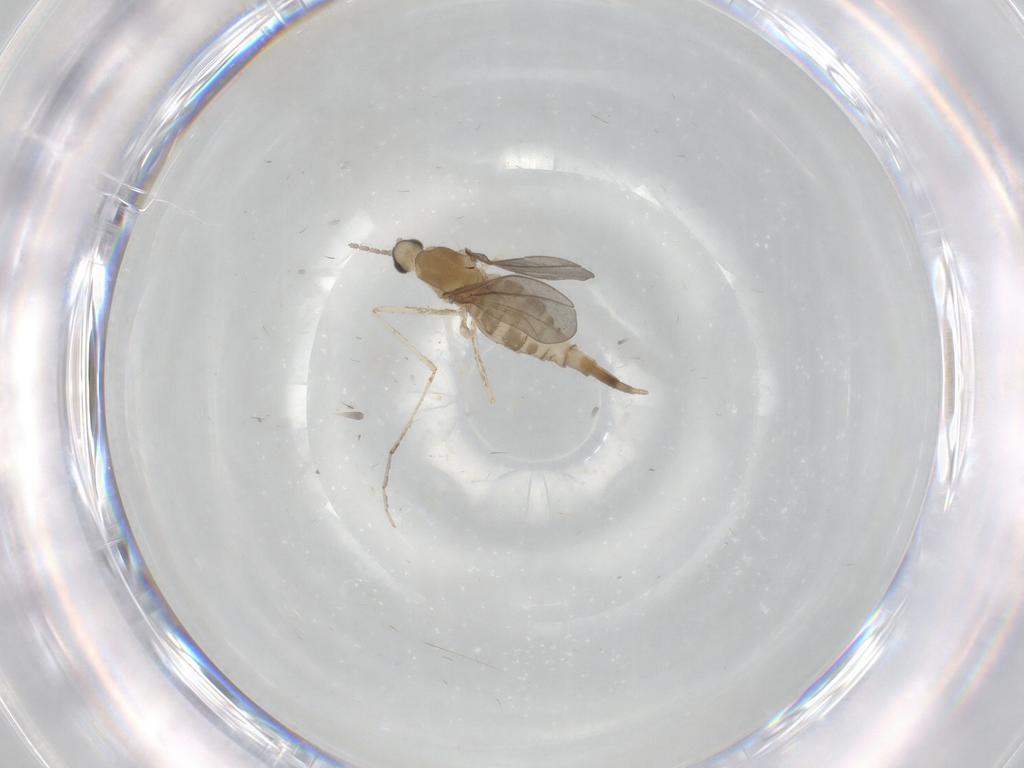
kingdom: Animalia
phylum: Arthropoda
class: Insecta
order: Diptera
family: Cecidomyiidae
